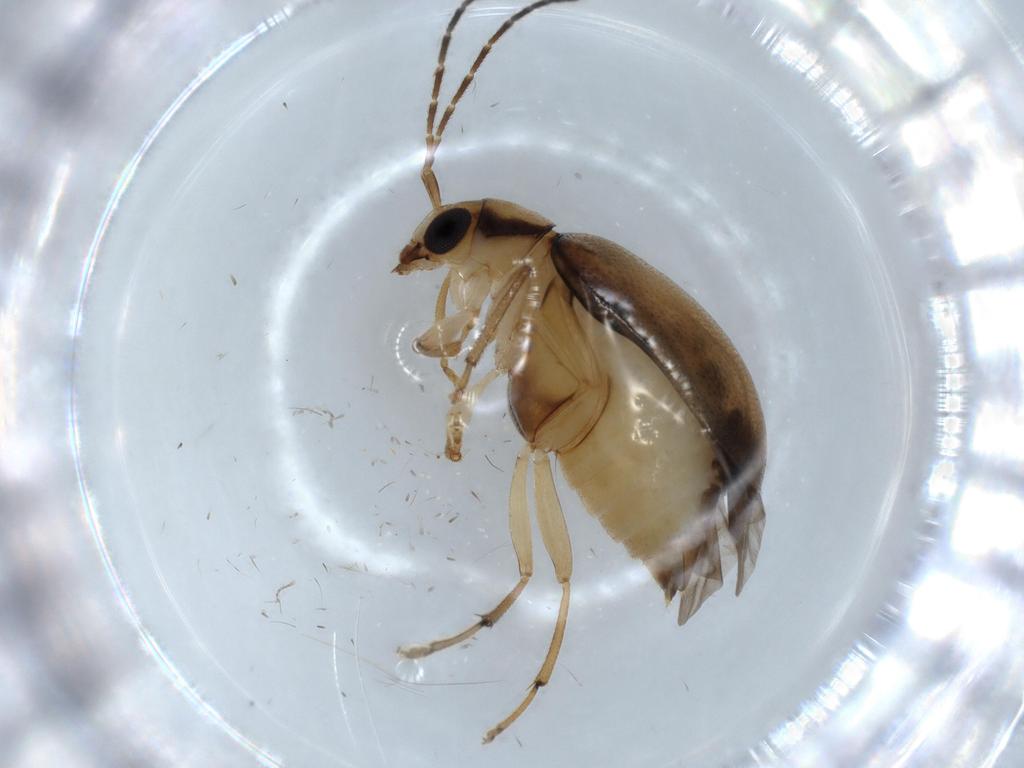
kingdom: Animalia
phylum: Arthropoda
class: Insecta
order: Coleoptera
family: Chrysomelidae
